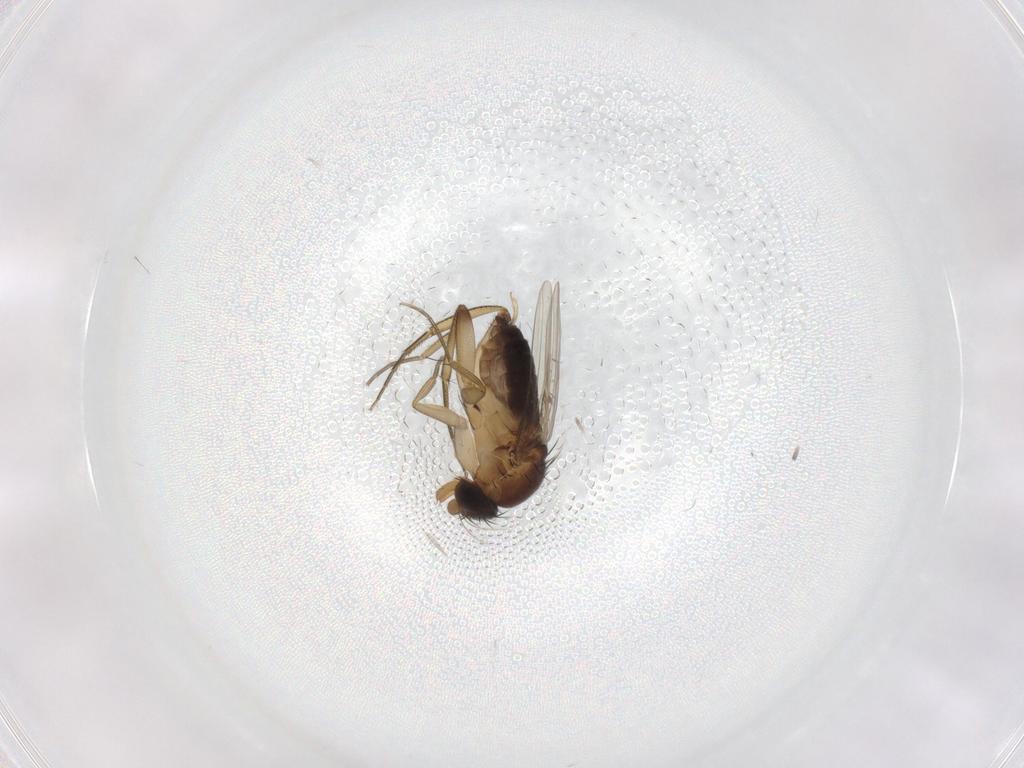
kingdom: Animalia
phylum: Arthropoda
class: Insecta
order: Diptera
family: Phoridae
